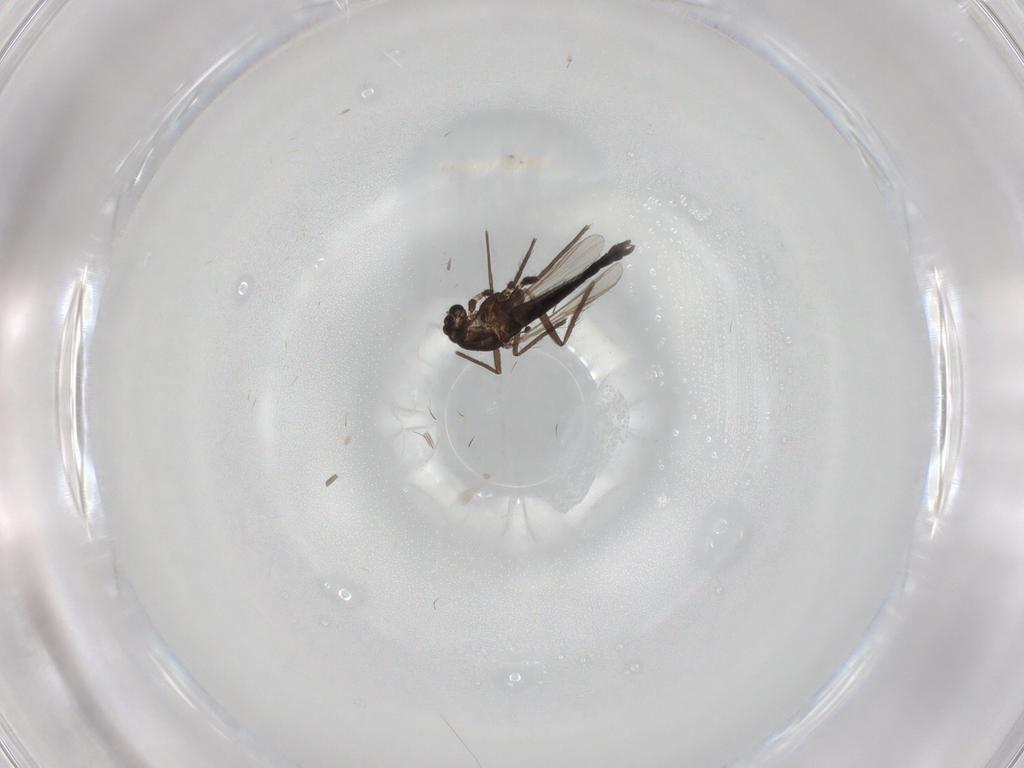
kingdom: Animalia
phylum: Arthropoda
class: Insecta
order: Diptera
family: Chironomidae
